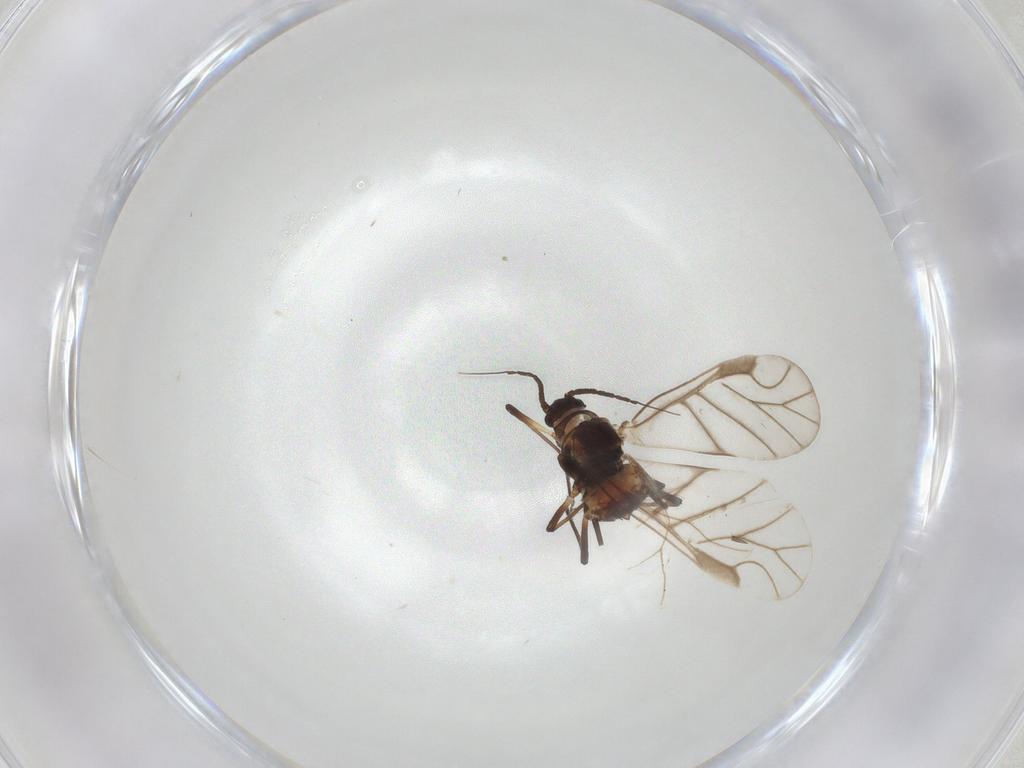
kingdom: Animalia
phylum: Arthropoda
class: Insecta
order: Hemiptera
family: Aphididae
